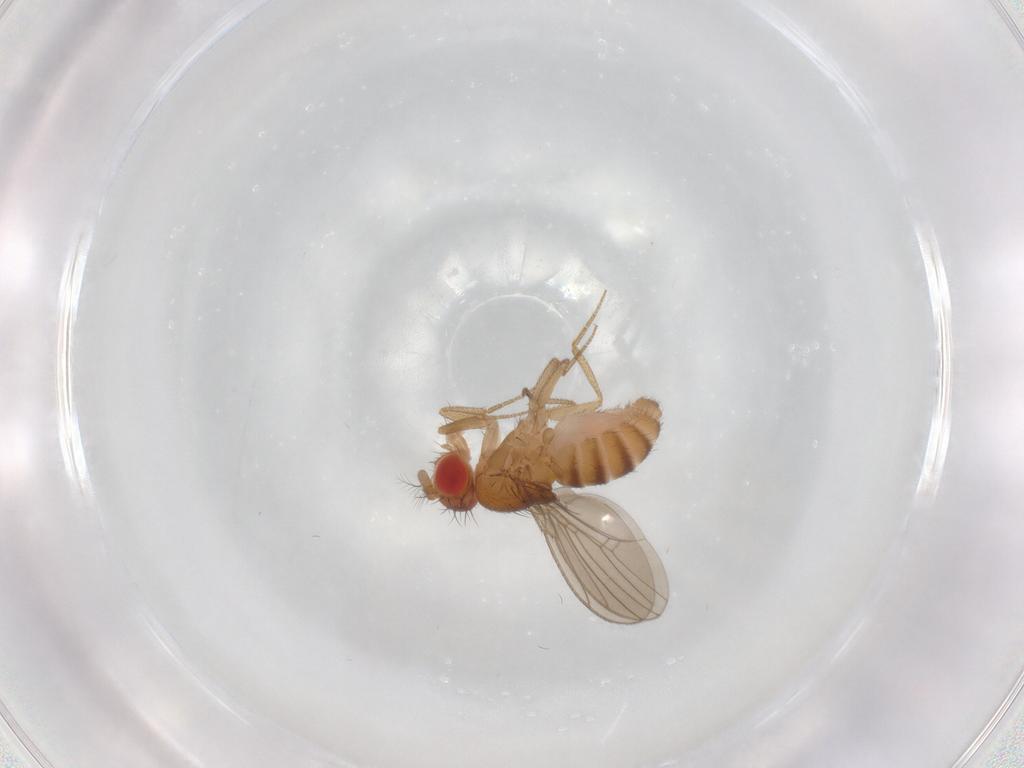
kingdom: Animalia
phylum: Arthropoda
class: Insecta
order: Diptera
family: Drosophilidae
